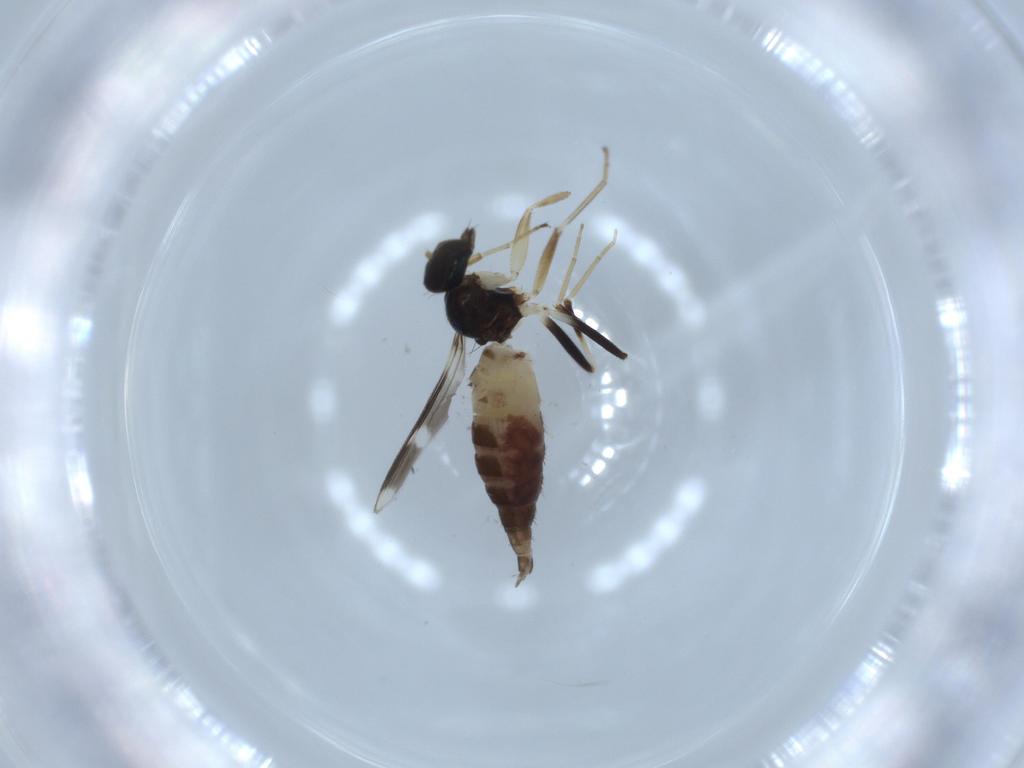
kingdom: Animalia
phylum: Arthropoda
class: Insecta
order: Diptera
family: Hybotidae
